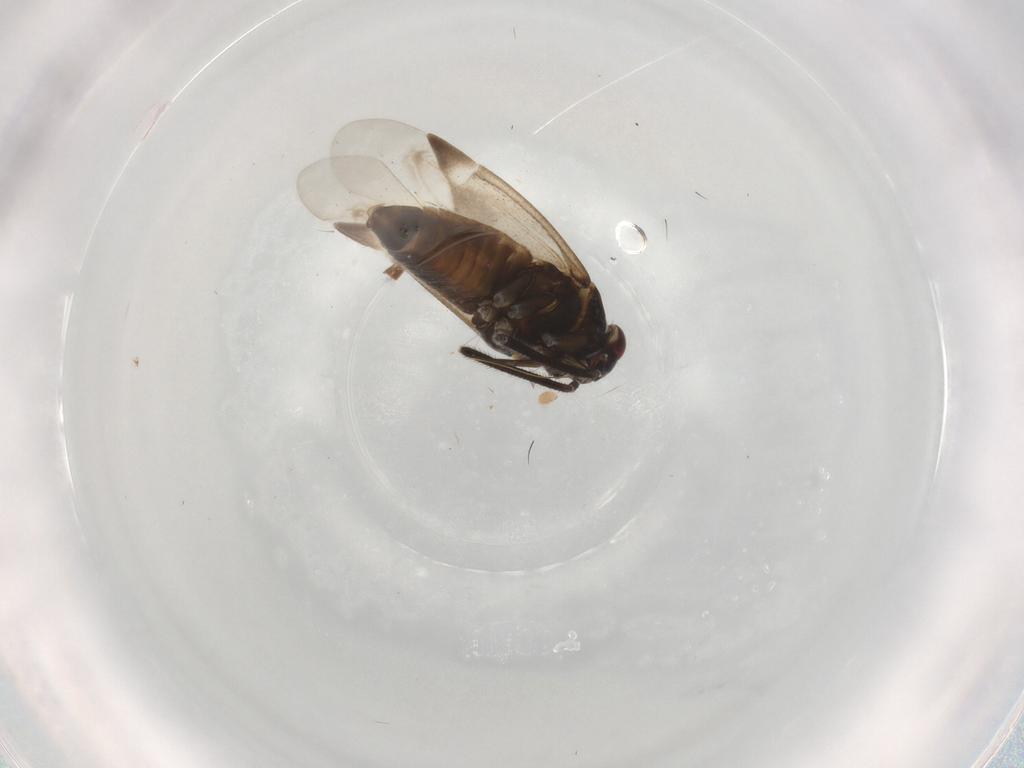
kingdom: Animalia
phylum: Arthropoda
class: Insecta
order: Hemiptera
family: Miridae
